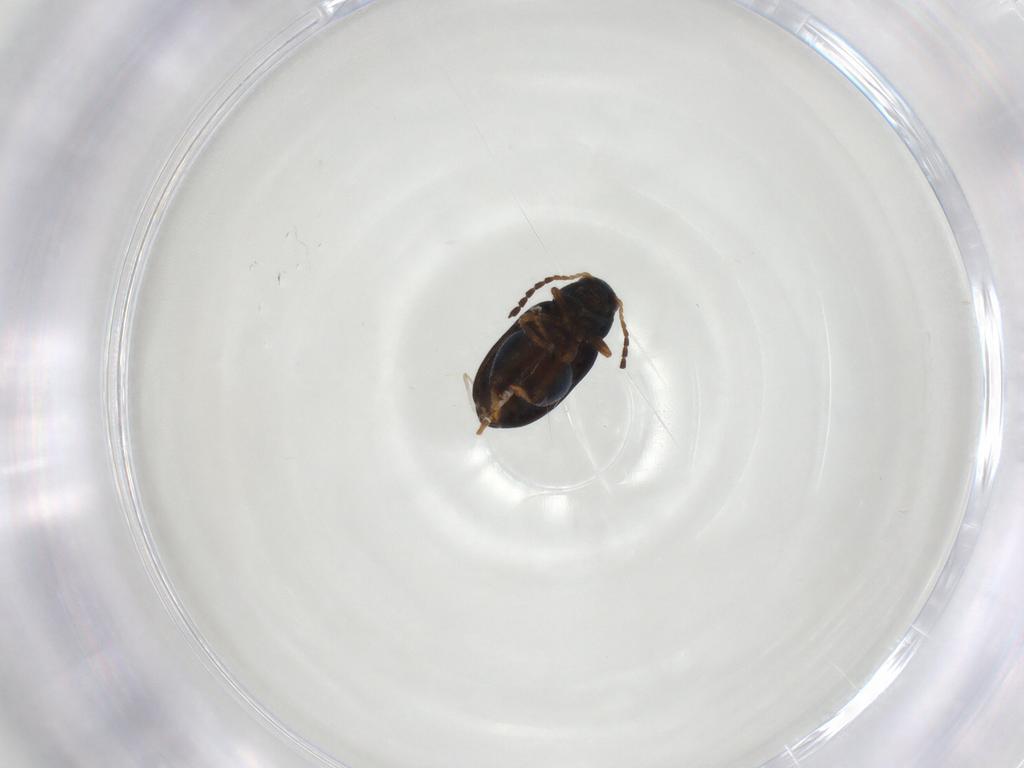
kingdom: Animalia
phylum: Arthropoda
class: Insecta
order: Coleoptera
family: Chrysomelidae
